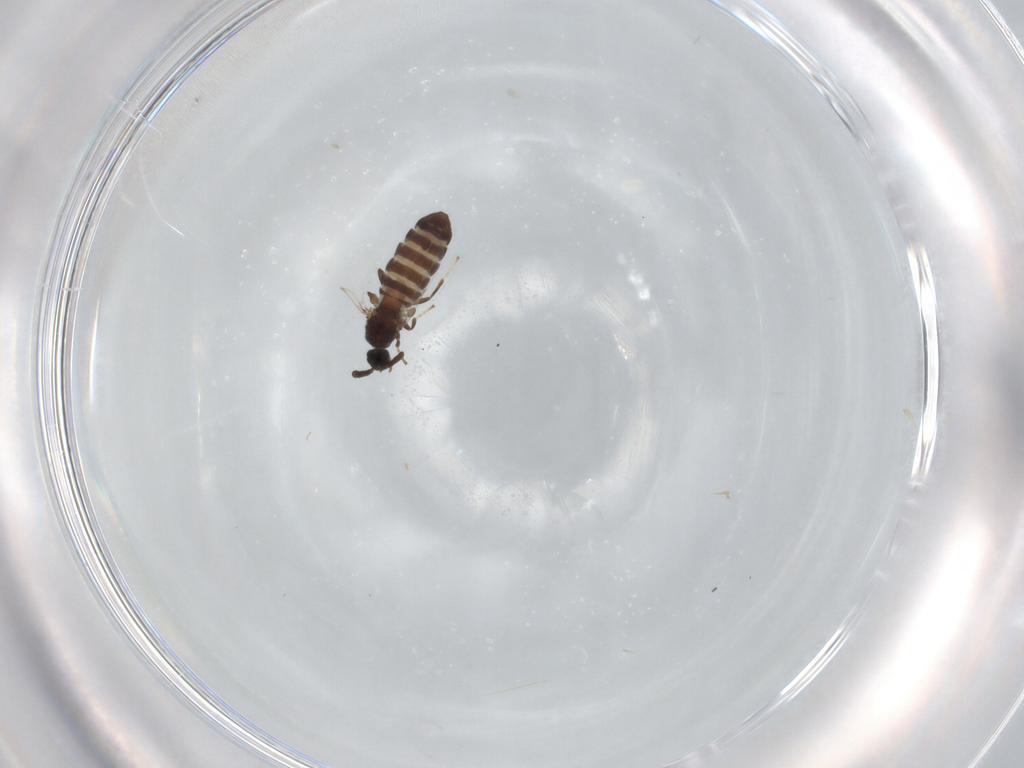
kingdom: Animalia
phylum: Arthropoda
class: Insecta
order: Diptera
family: Scatopsidae
